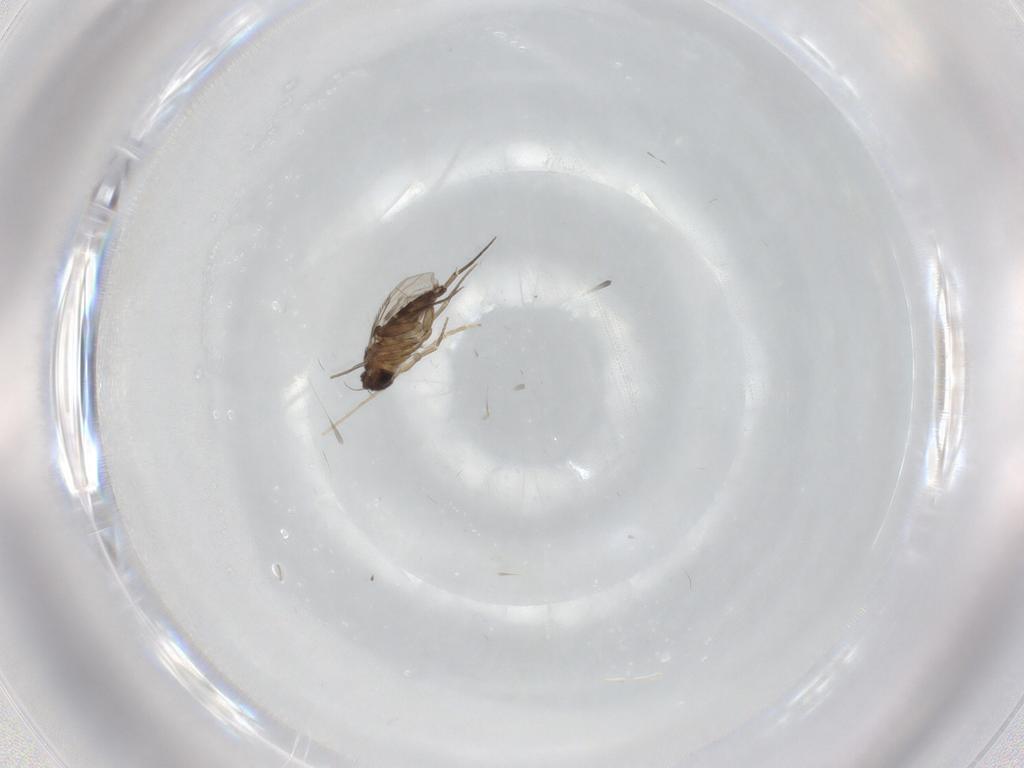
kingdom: Animalia
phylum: Arthropoda
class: Insecta
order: Diptera
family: Phoridae
